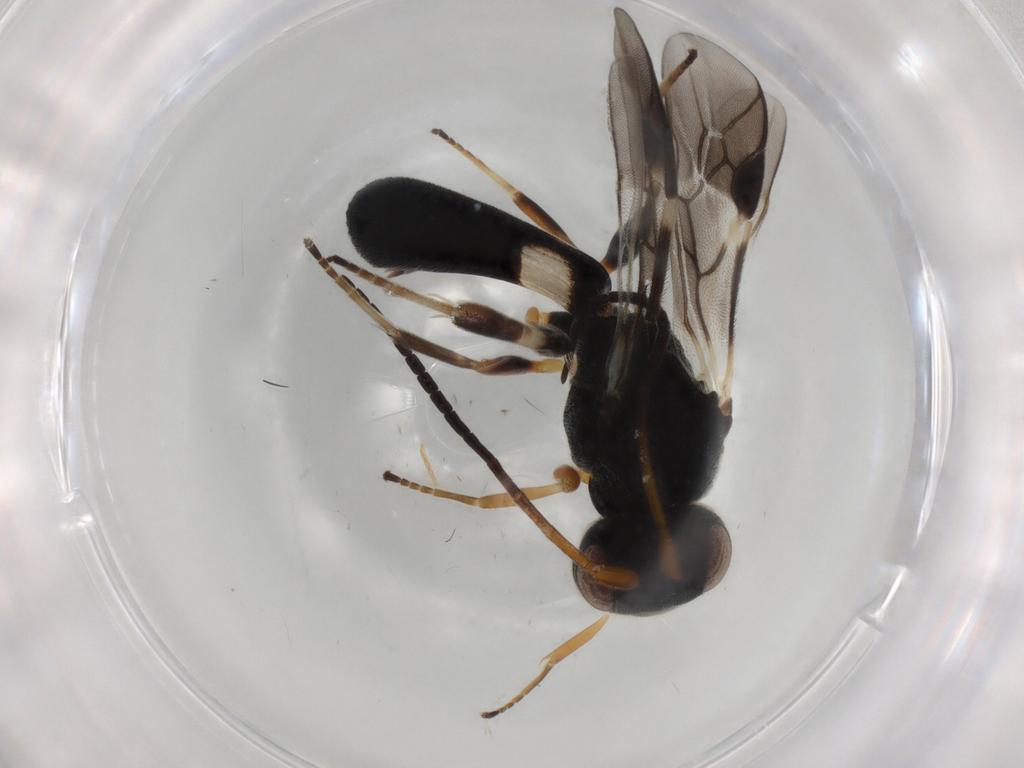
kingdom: Animalia
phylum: Arthropoda
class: Insecta
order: Hymenoptera
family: Braconidae
